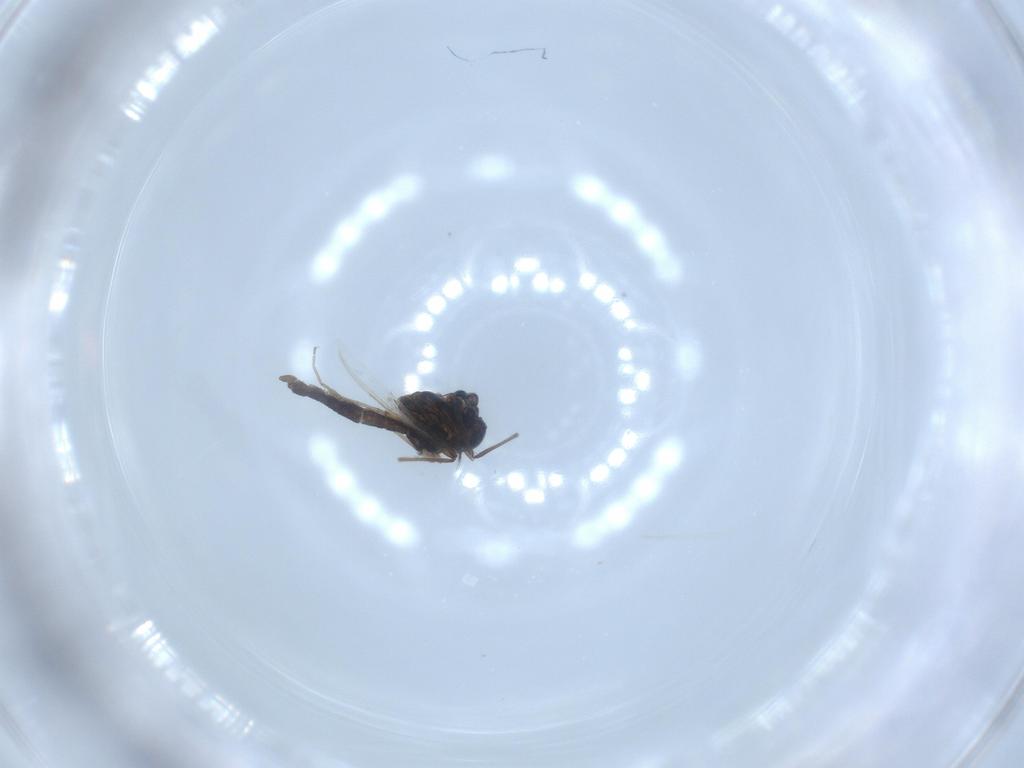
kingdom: Animalia
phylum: Arthropoda
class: Insecta
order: Diptera
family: Chironomidae
